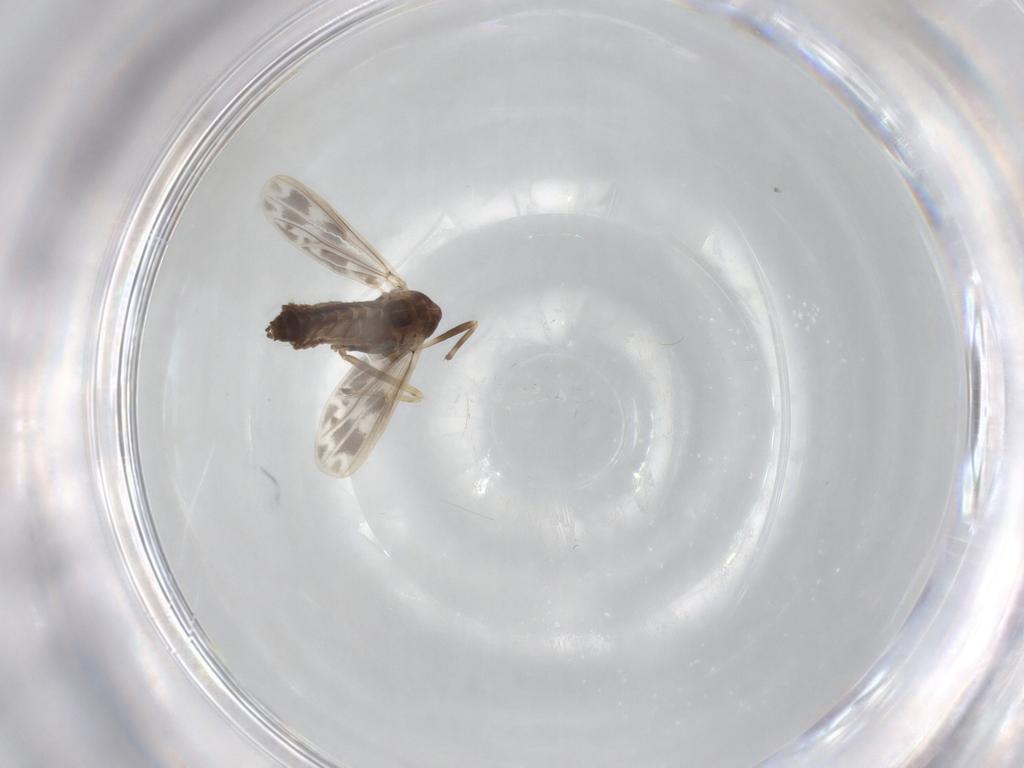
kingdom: Animalia
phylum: Arthropoda
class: Insecta
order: Diptera
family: Chironomidae
